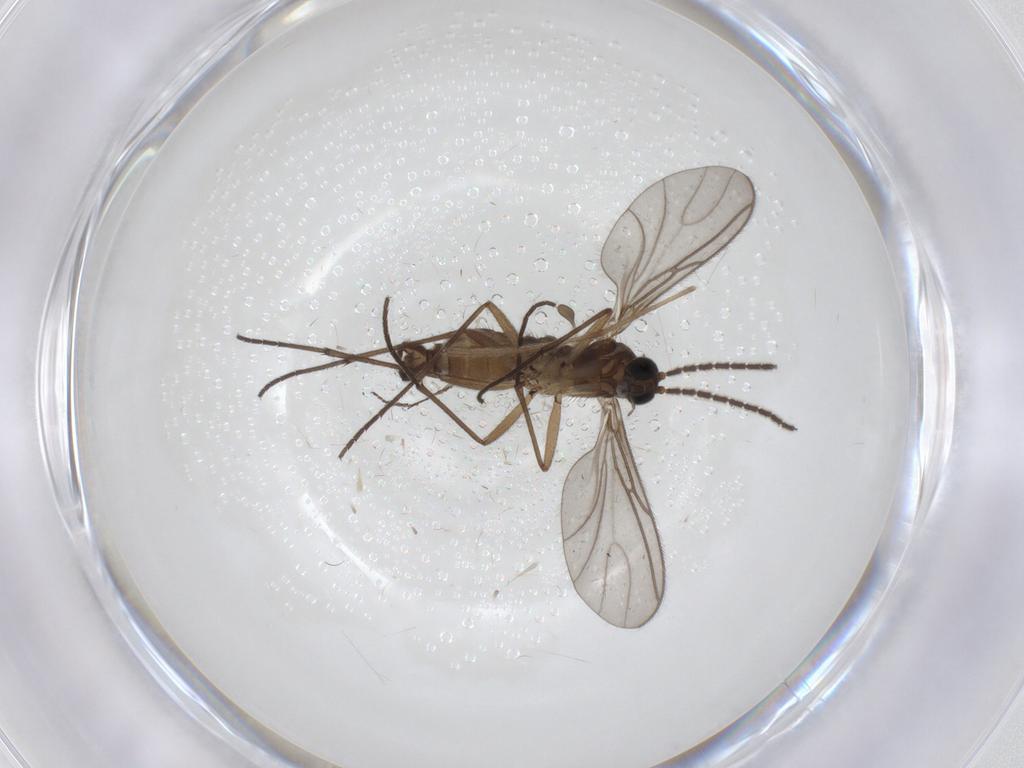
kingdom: Animalia
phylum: Arthropoda
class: Insecta
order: Diptera
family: Sciaridae
